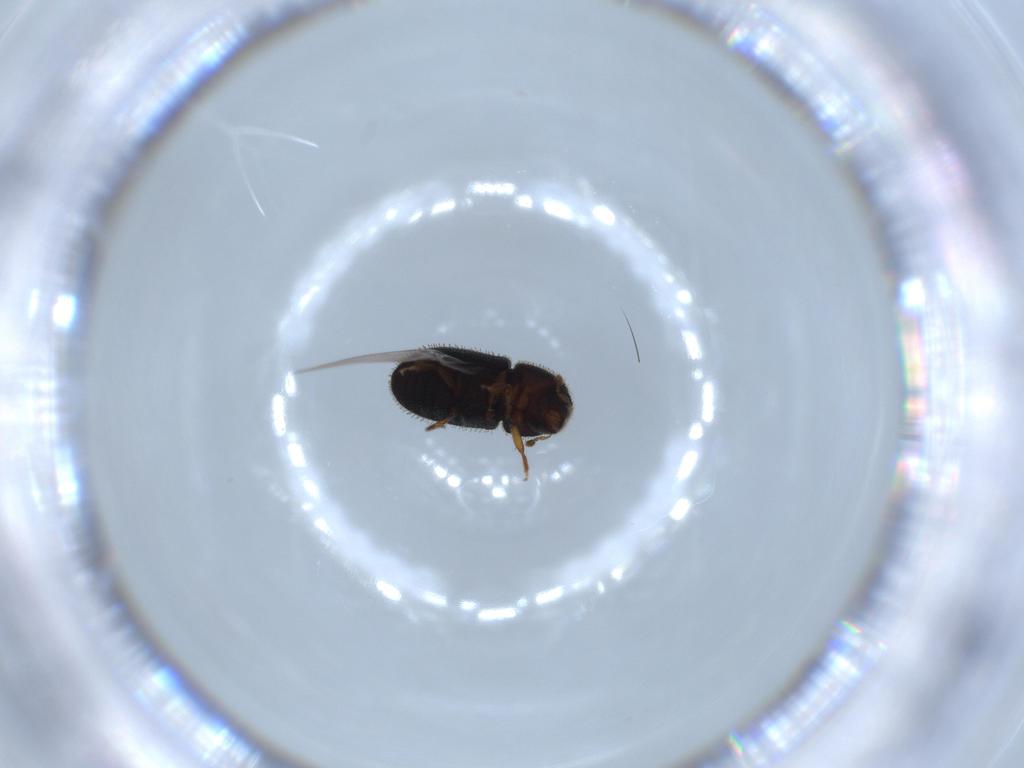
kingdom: Animalia
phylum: Arthropoda
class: Insecta
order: Coleoptera
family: Curculionidae
